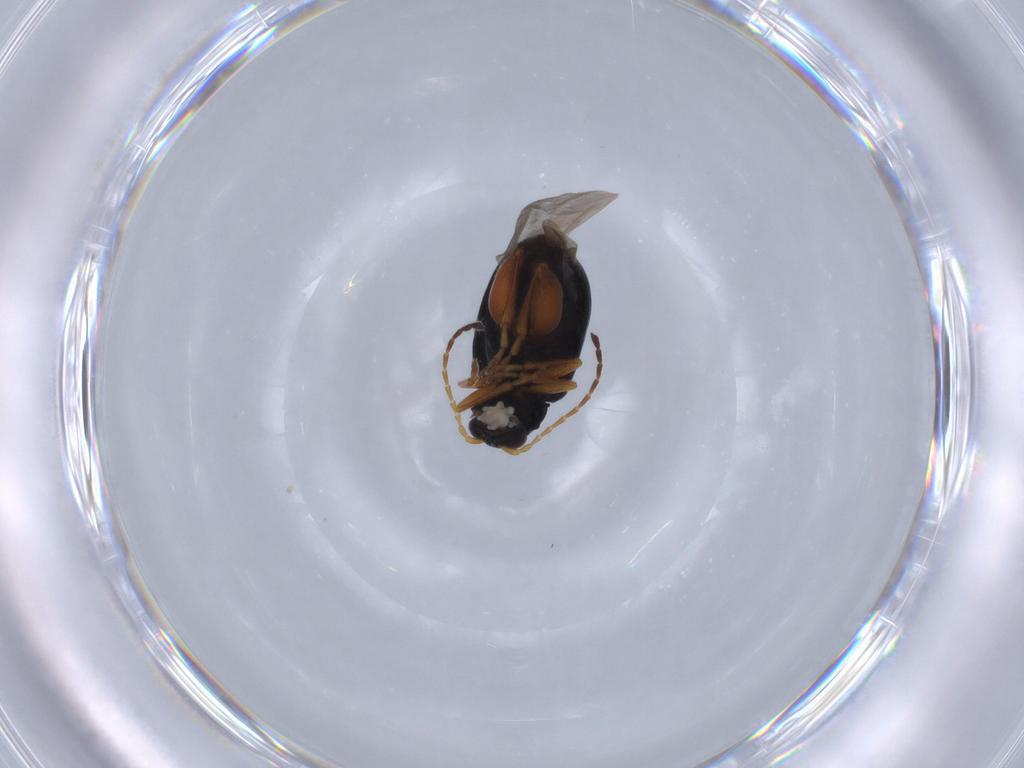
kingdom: Animalia
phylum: Arthropoda
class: Insecta
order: Coleoptera
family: Chrysomelidae
